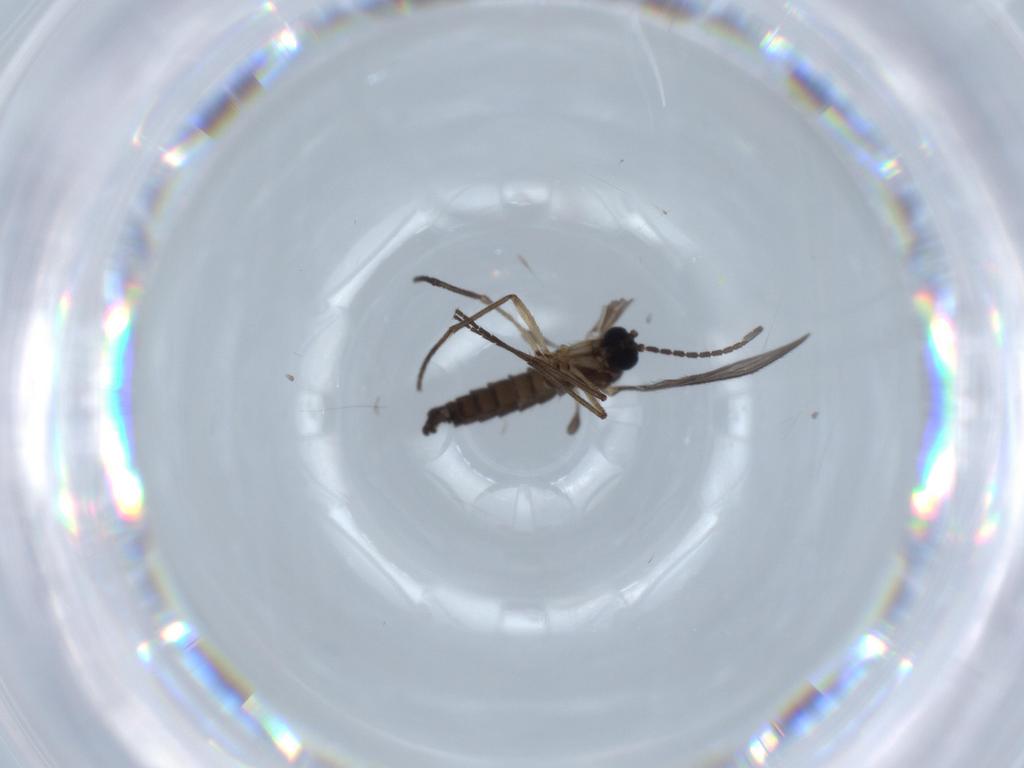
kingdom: Animalia
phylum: Arthropoda
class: Insecta
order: Diptera
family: Sciaridae
